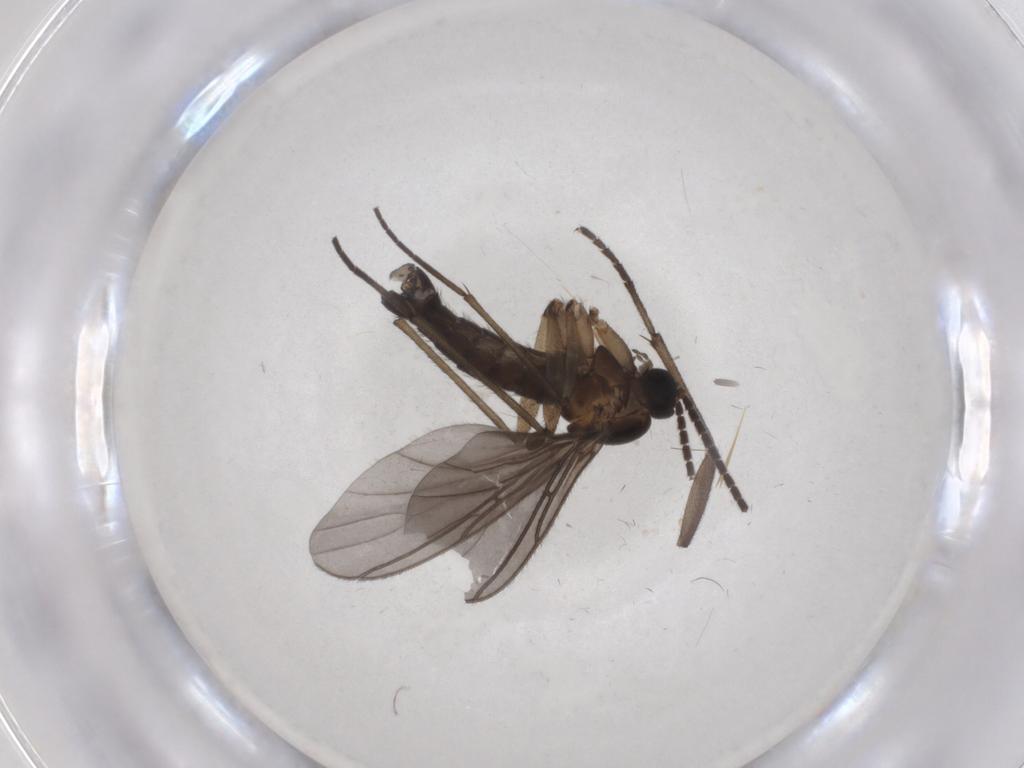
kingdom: Animalia
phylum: Arthropoda
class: Insecta
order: Diptera
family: Sciaridae
